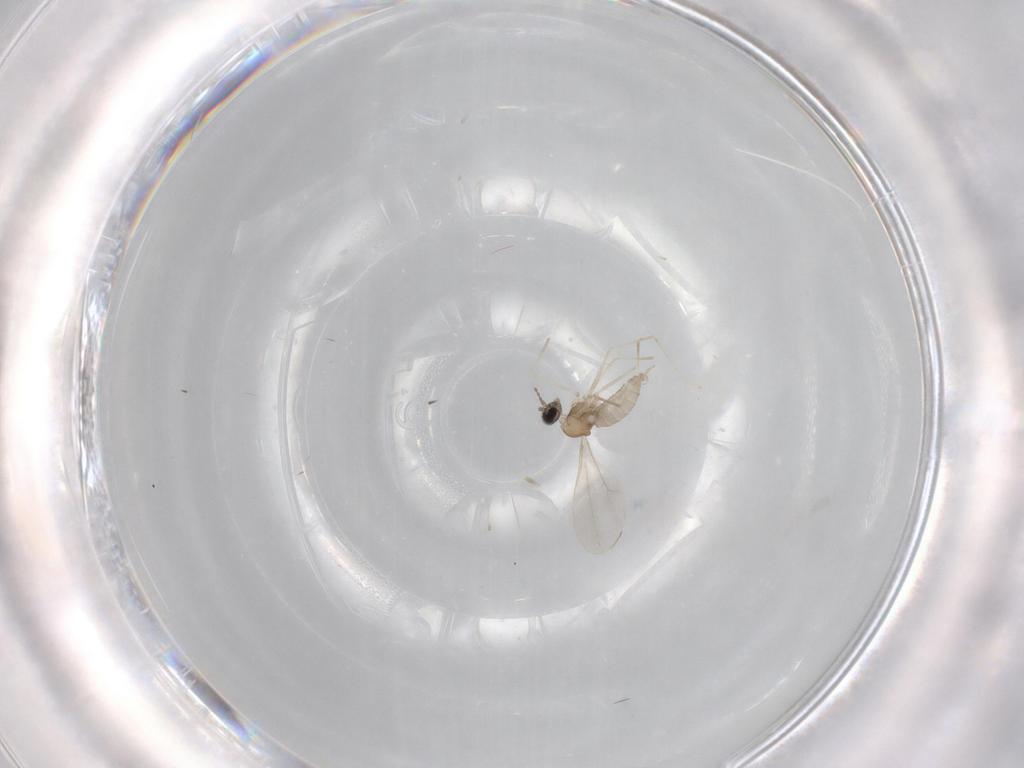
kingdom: Animalia
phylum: Arthropoda
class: Insecta
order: Diptera
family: Cecidomyiidae
